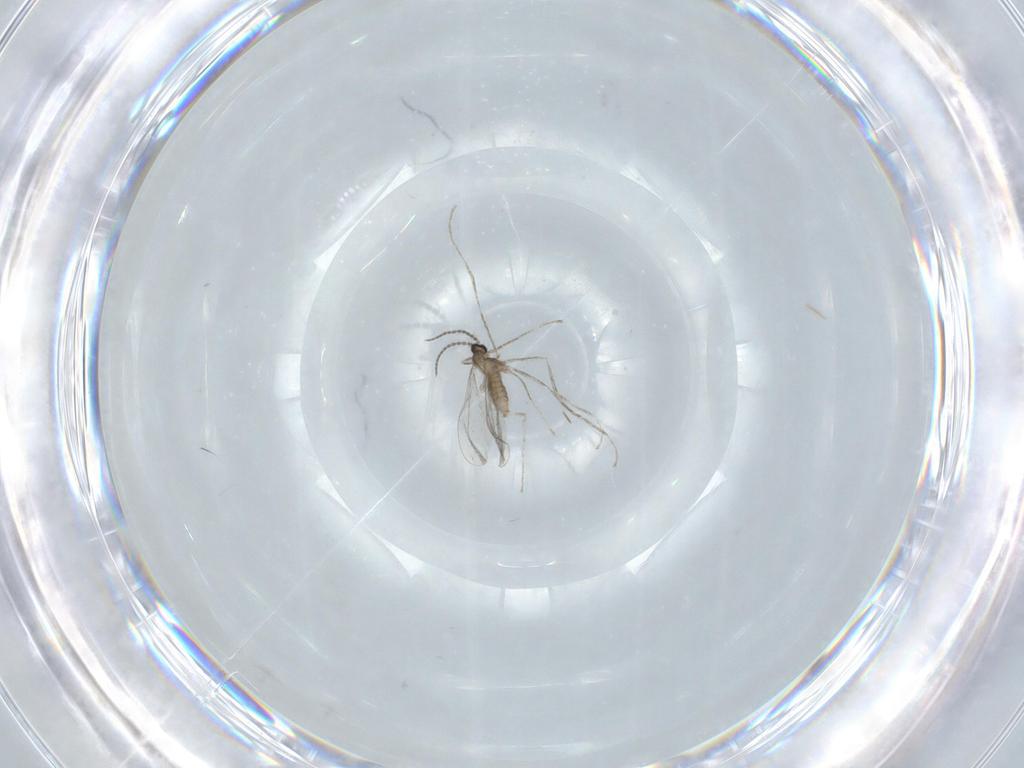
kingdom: Animalia
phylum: Arthropoda
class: Insecta
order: Diptera
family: Cecidomyiidae
